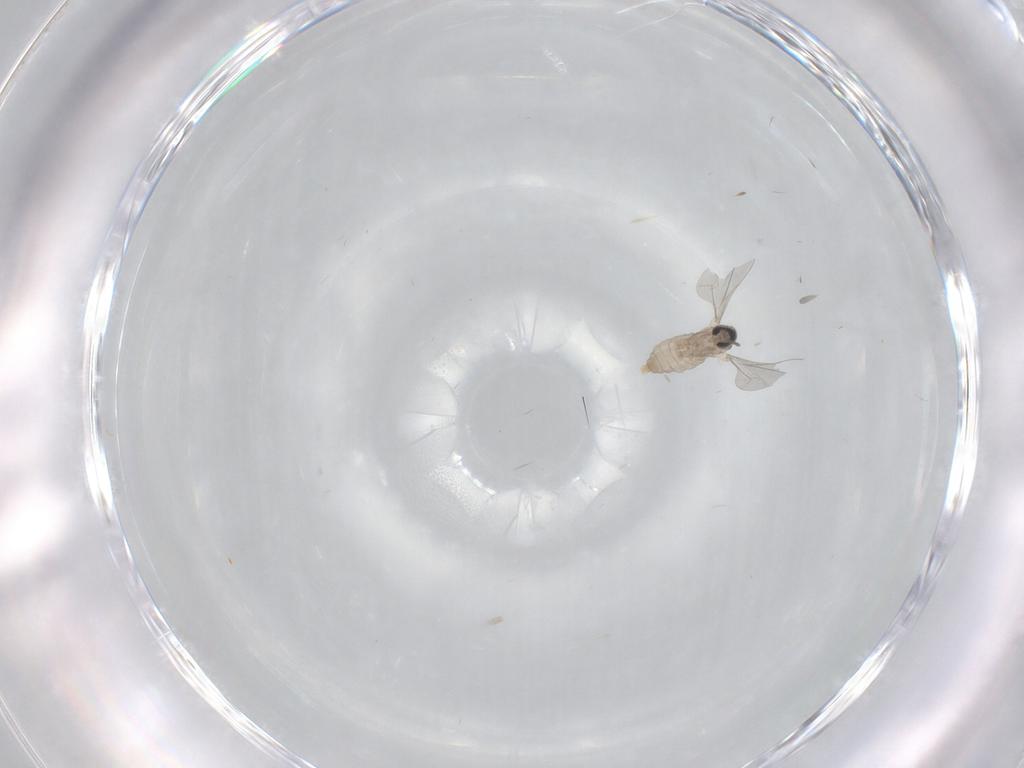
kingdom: Animalia
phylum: Arthropoda
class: Insecta
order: Diptera
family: Cecidomyiidae
